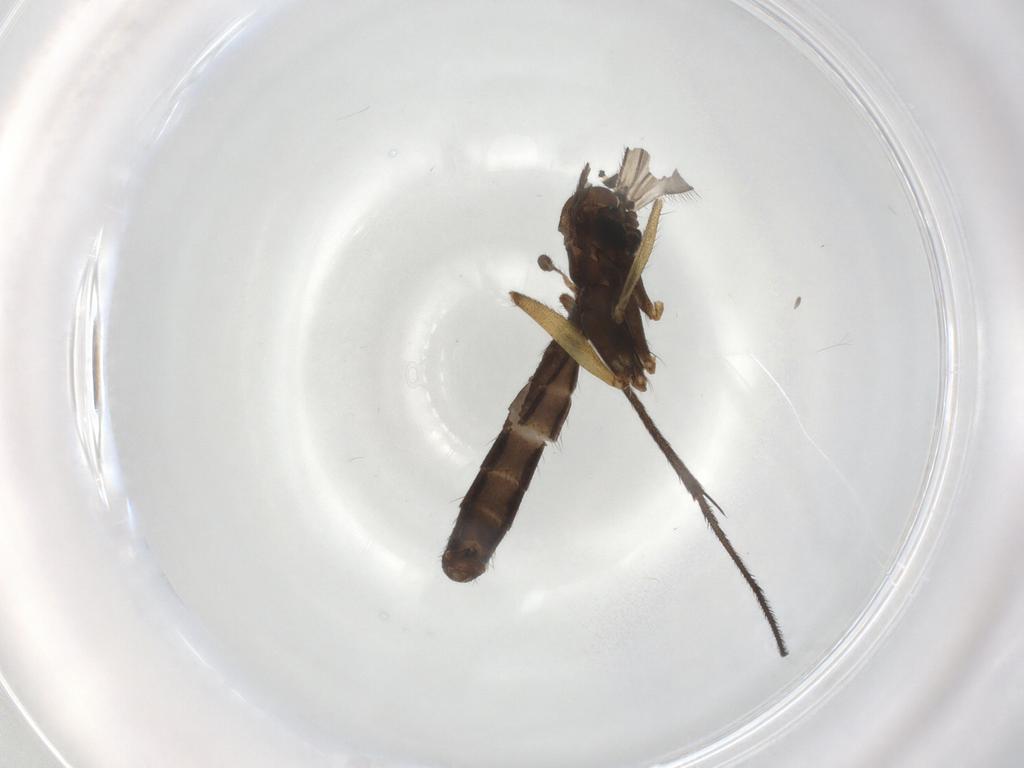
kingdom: Animalia
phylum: Arthropoda
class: Insecta
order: Diptera
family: Ditomyiidae
